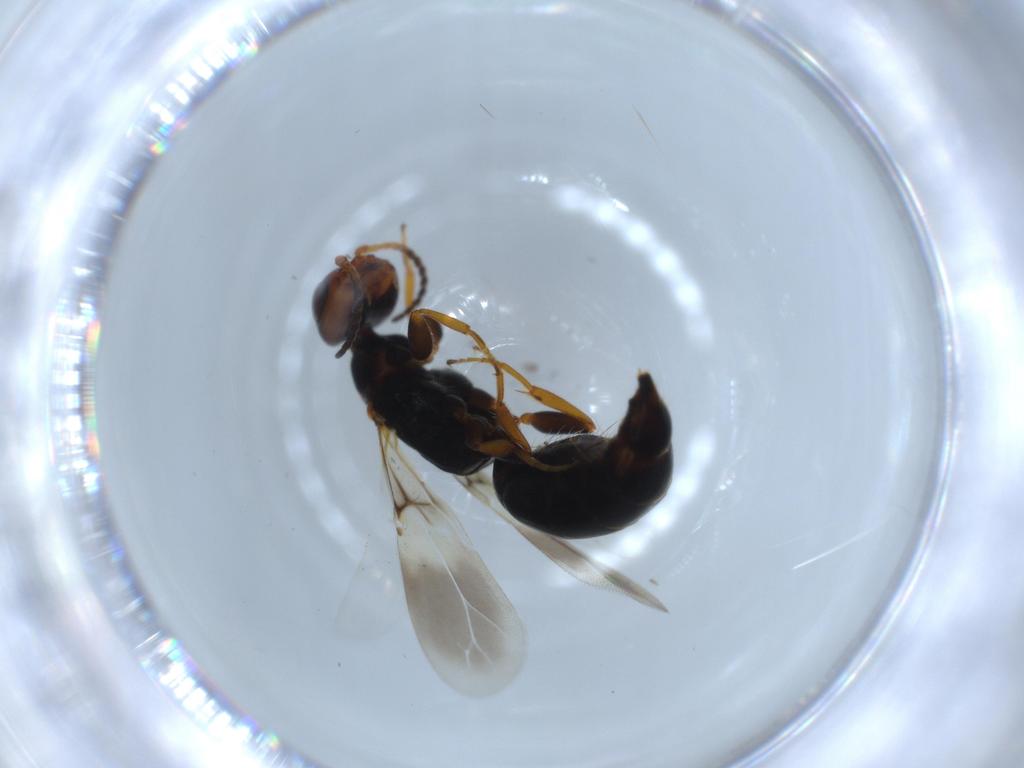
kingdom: Animalia
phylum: Arthropoda
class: Insecta
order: Hymenoptera
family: Bethylidae
